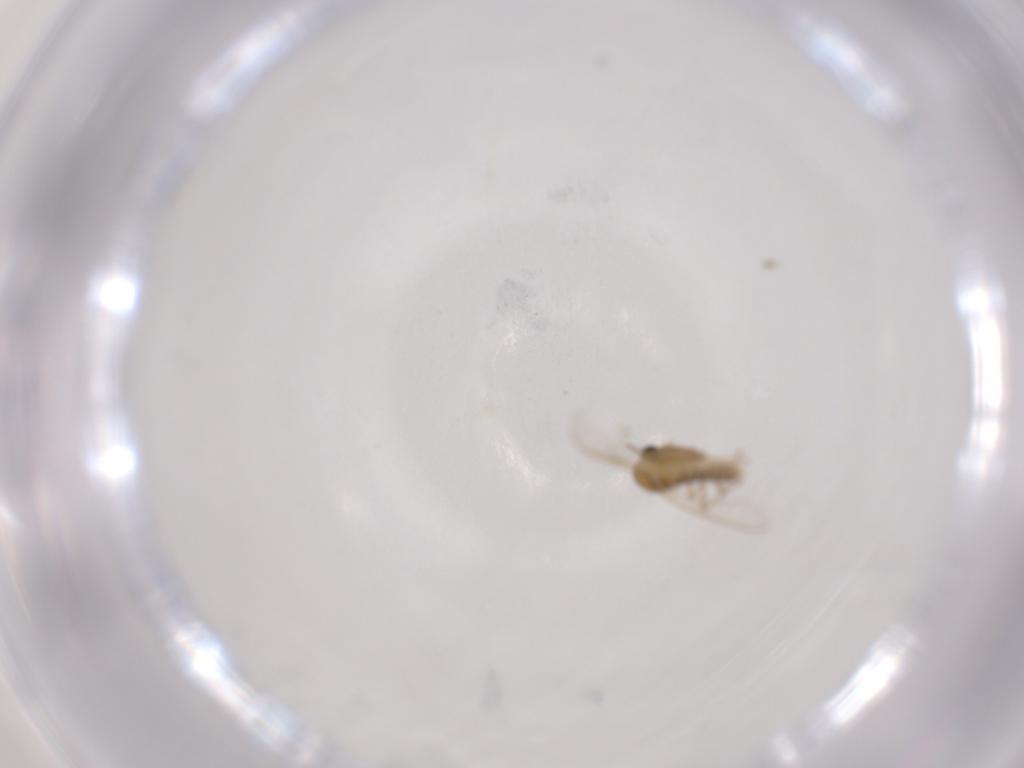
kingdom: Animalia
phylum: Arthropoda
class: Insecta
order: Diptera
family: Chironomidae
